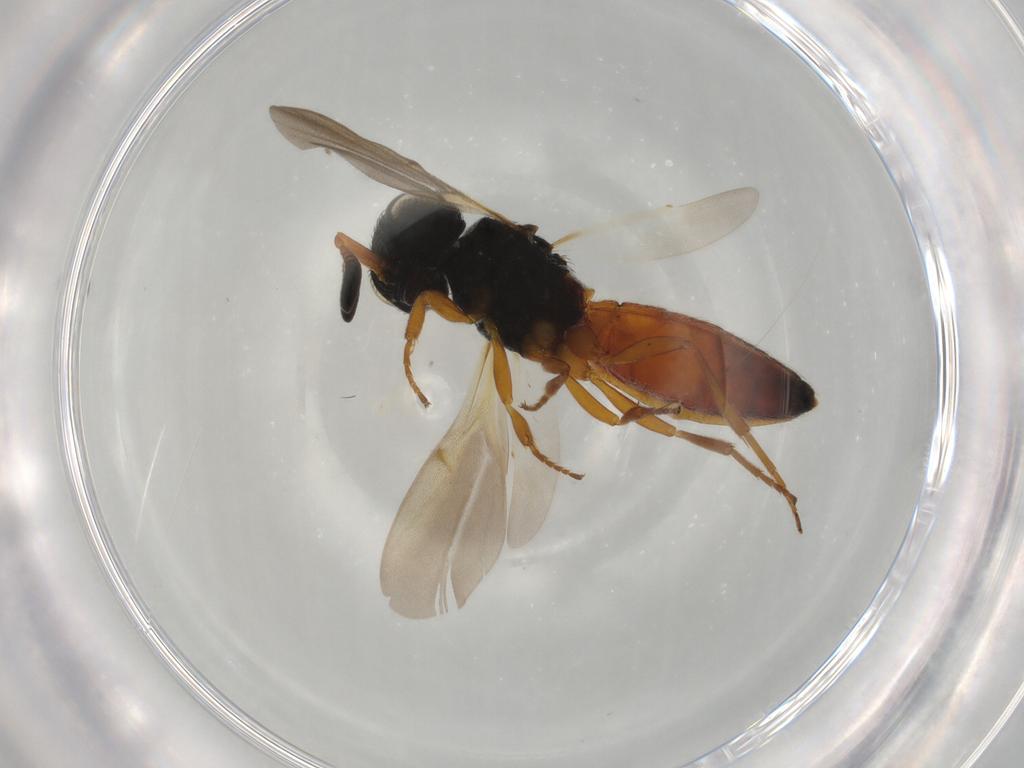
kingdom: Animalia
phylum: Arthropoda
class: Insecta
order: Hymenoptera
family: Scelionidae
